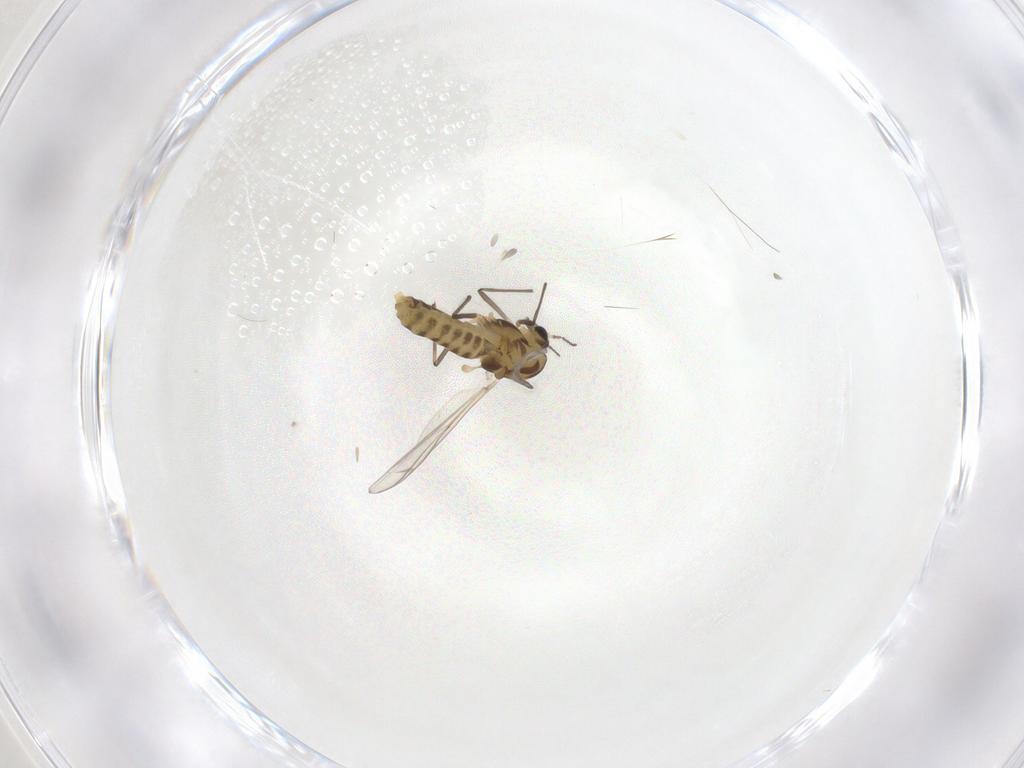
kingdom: Animalia
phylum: Arthropoda
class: Insecta
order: Diptera
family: Chironomidae
